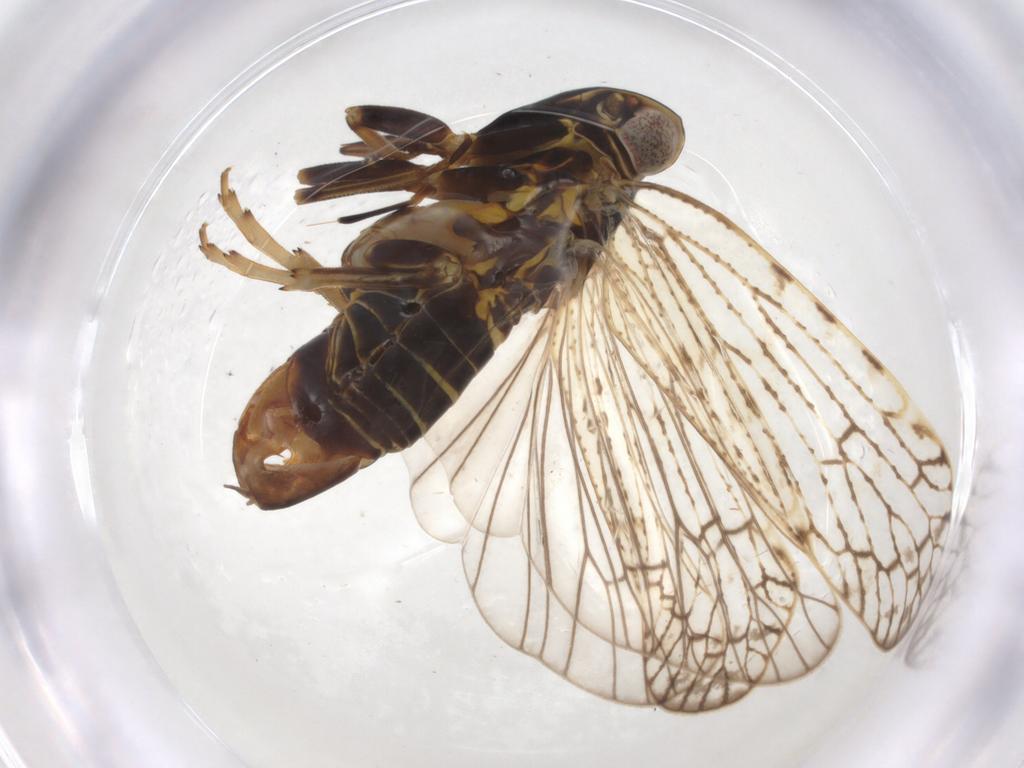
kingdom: Animalia
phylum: Arthropoda
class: Insecta
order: Hemiptera
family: Cixiidae
